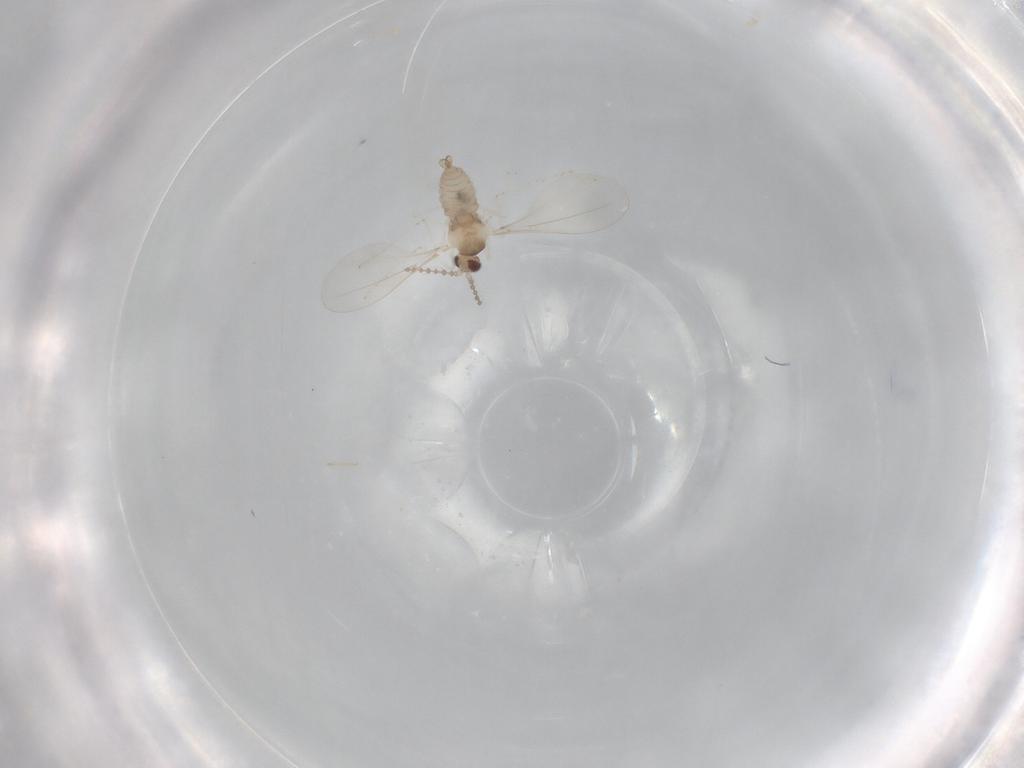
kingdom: Animalia
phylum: Arthropoda
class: Insecta
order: Diptera
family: Cecidomyiidae
